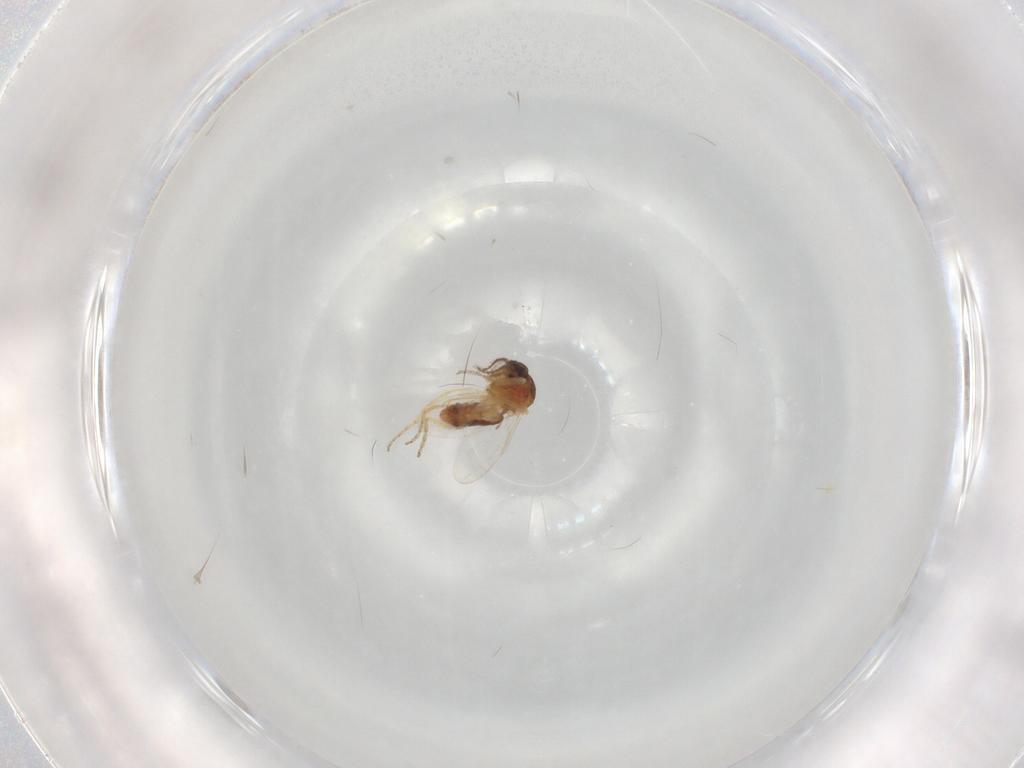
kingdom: Animalia
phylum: Arthropoda
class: Insecta
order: Diptera
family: Ceratopogonidae
